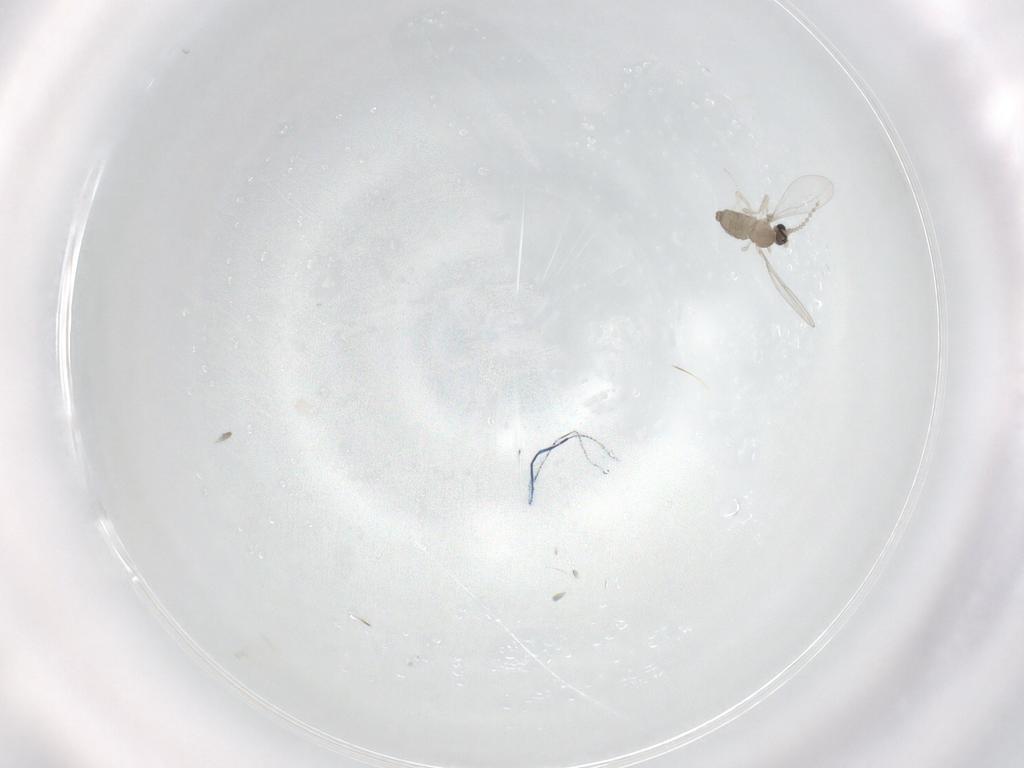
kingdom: Animalia
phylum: Arthropoda
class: Insecta
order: Diptera
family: Cecidomyiidae
